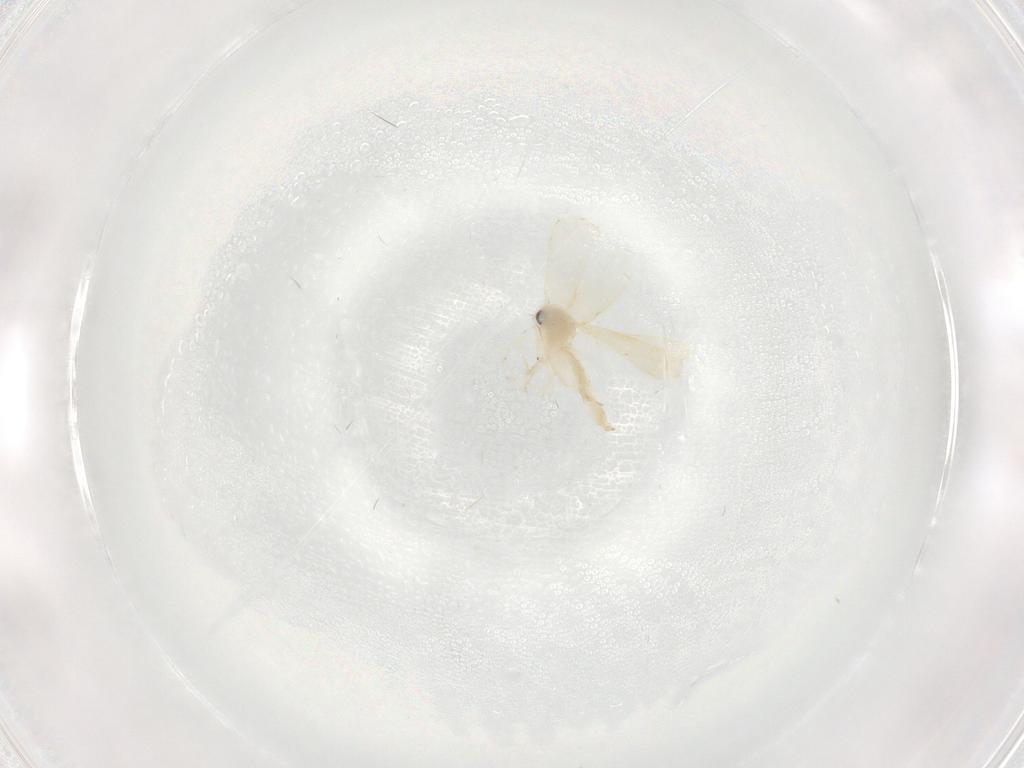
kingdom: Animalia
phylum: Arthropoda
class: Insecta
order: Hemiptera
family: Aleyrodidae
